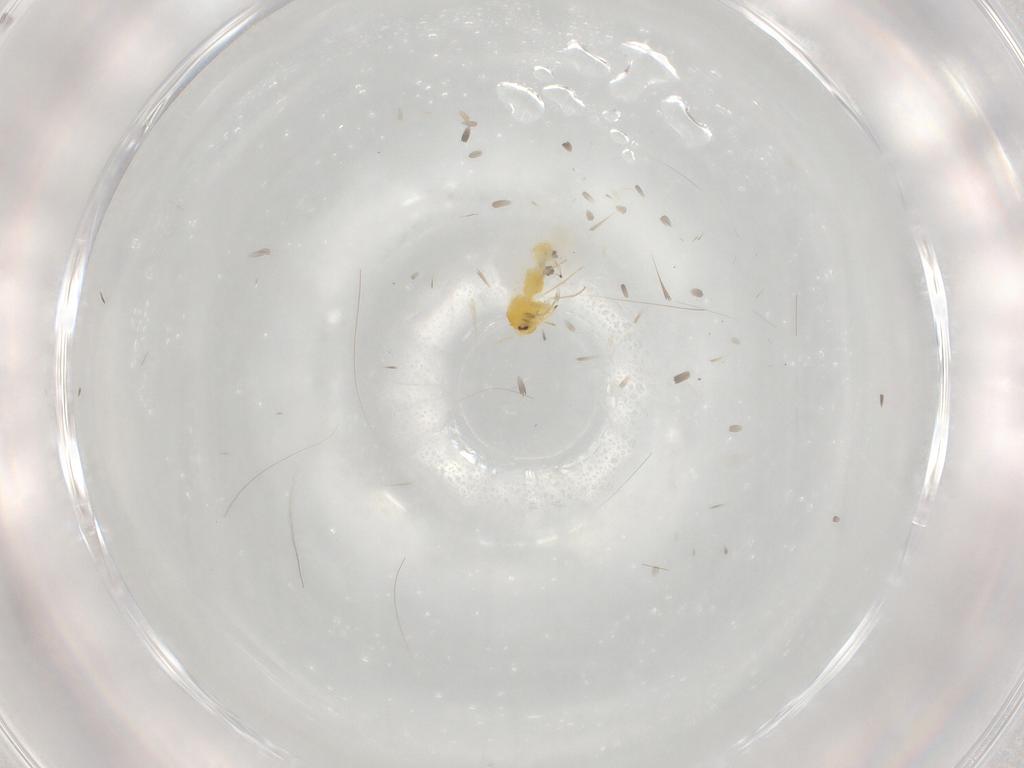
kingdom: Animalia
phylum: Arthropoda
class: Insecta
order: Hemiptera
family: Aleyrodidae
